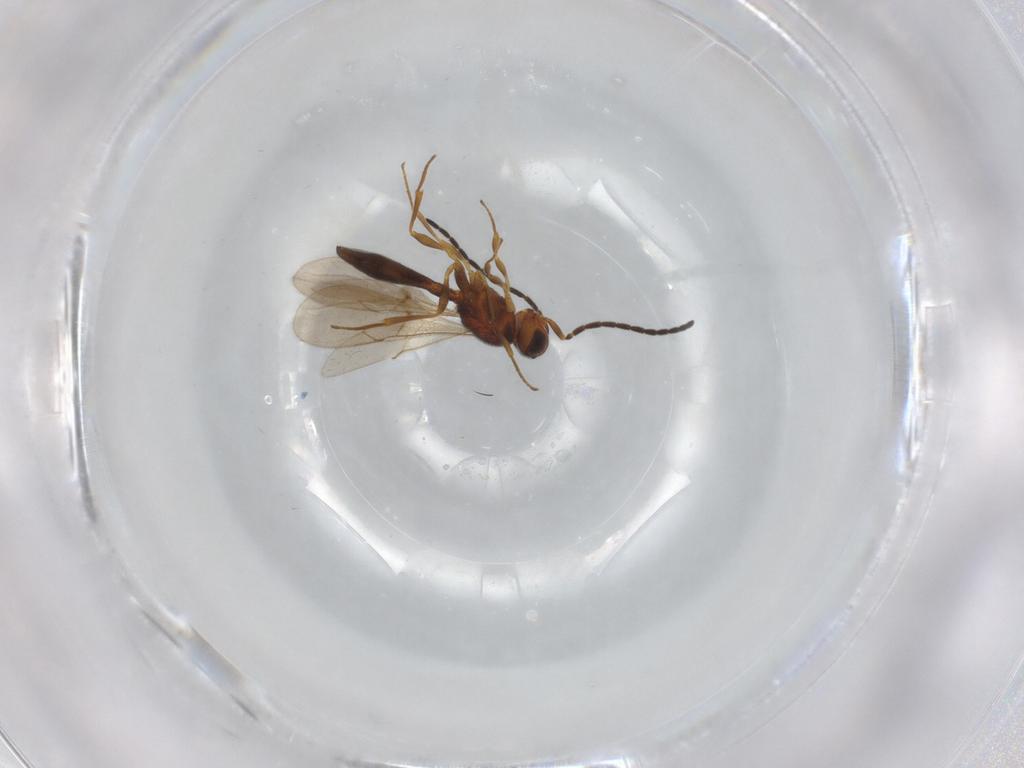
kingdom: Animalia
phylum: Arthropoda
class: Insecta
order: Hymenoptera
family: Scelionidae
